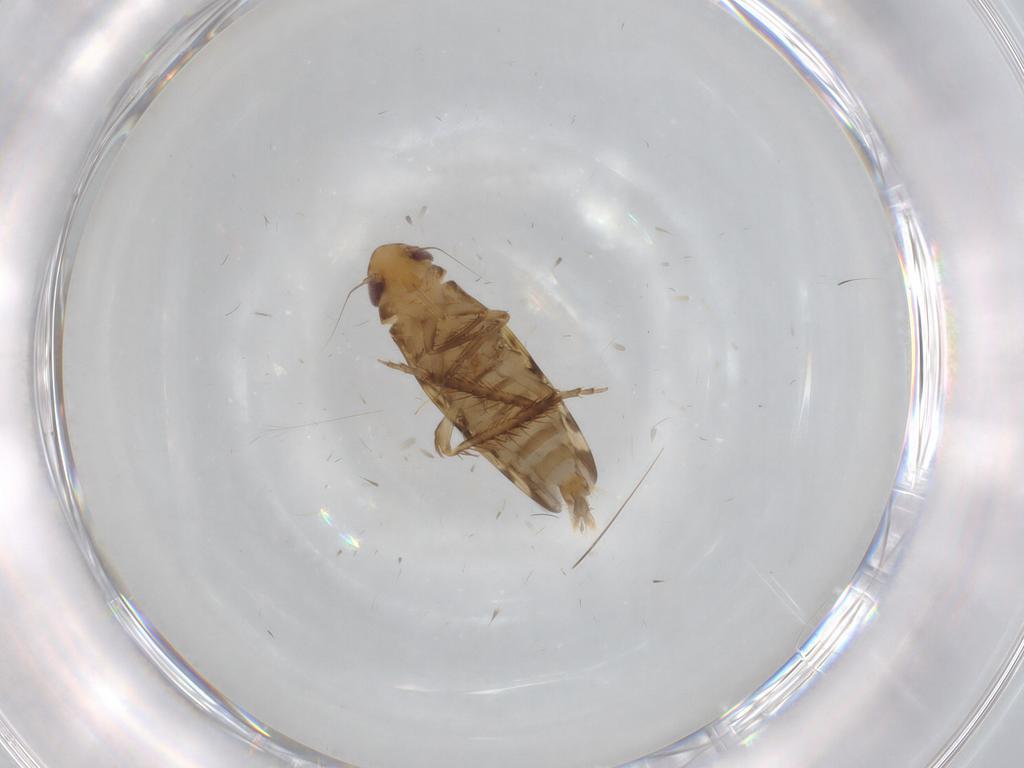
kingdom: Animalia
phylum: Arthropoda
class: Insecta
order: Hemiptera
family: Cicadellidae
